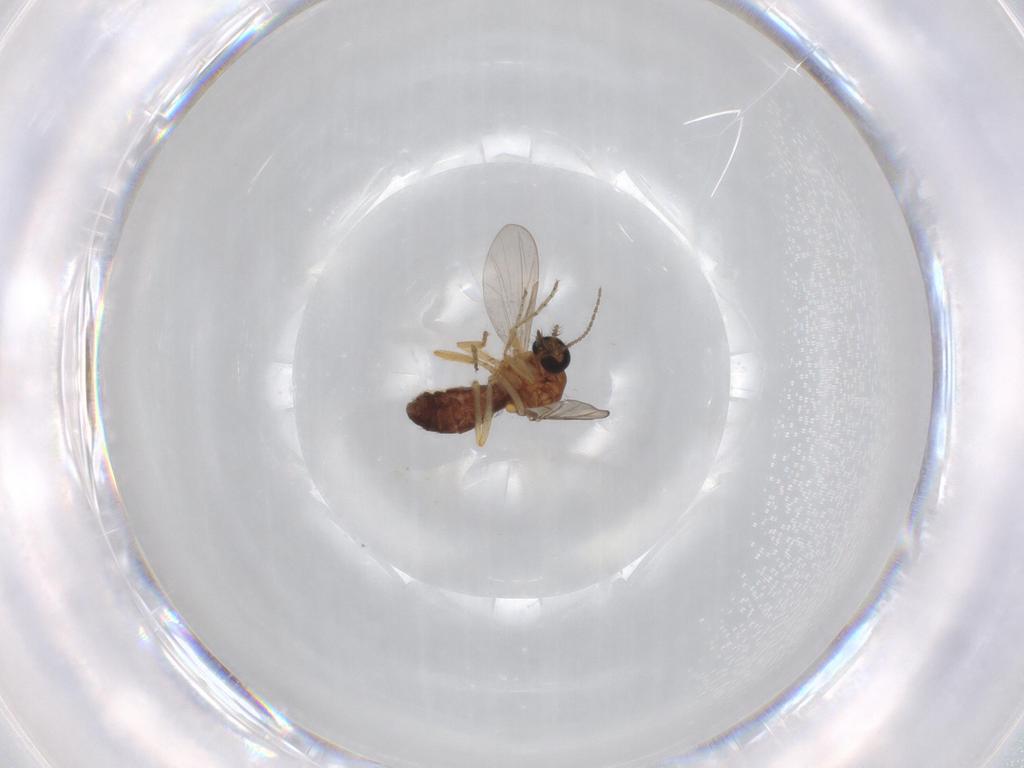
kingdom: Animalia
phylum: Arthropoda
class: Insecta
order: Diptera
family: Ceratopogonidae
